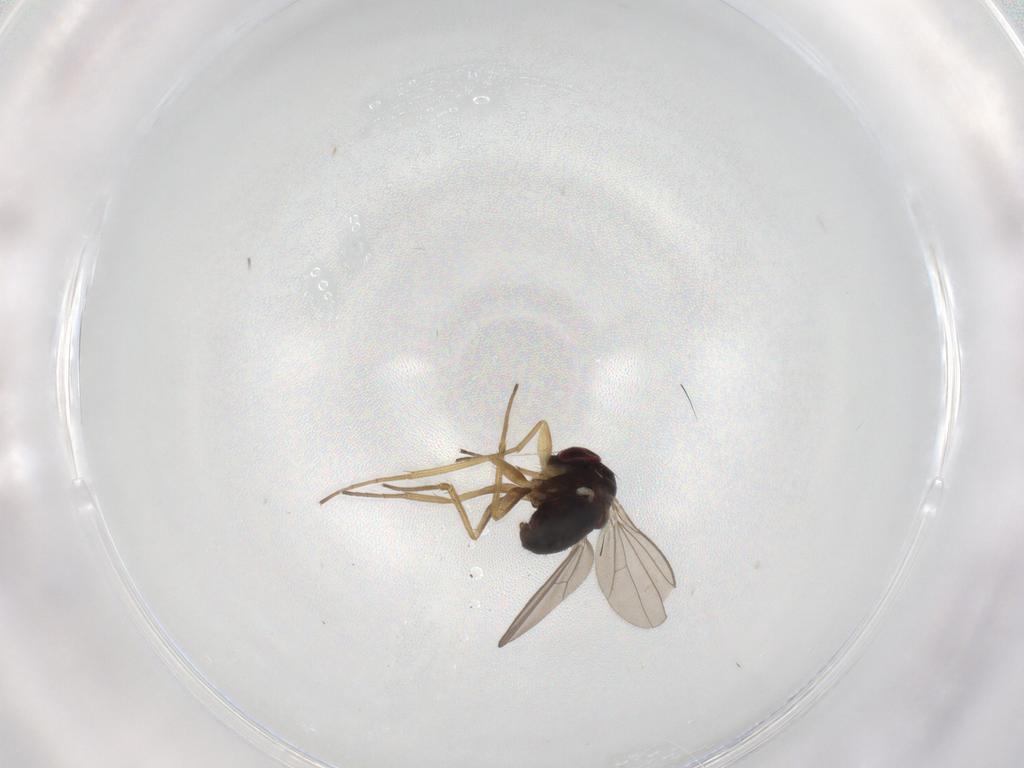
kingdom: Animalia
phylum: Arthropoda
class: Insecta
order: Diptera
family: Dolichopodidae
